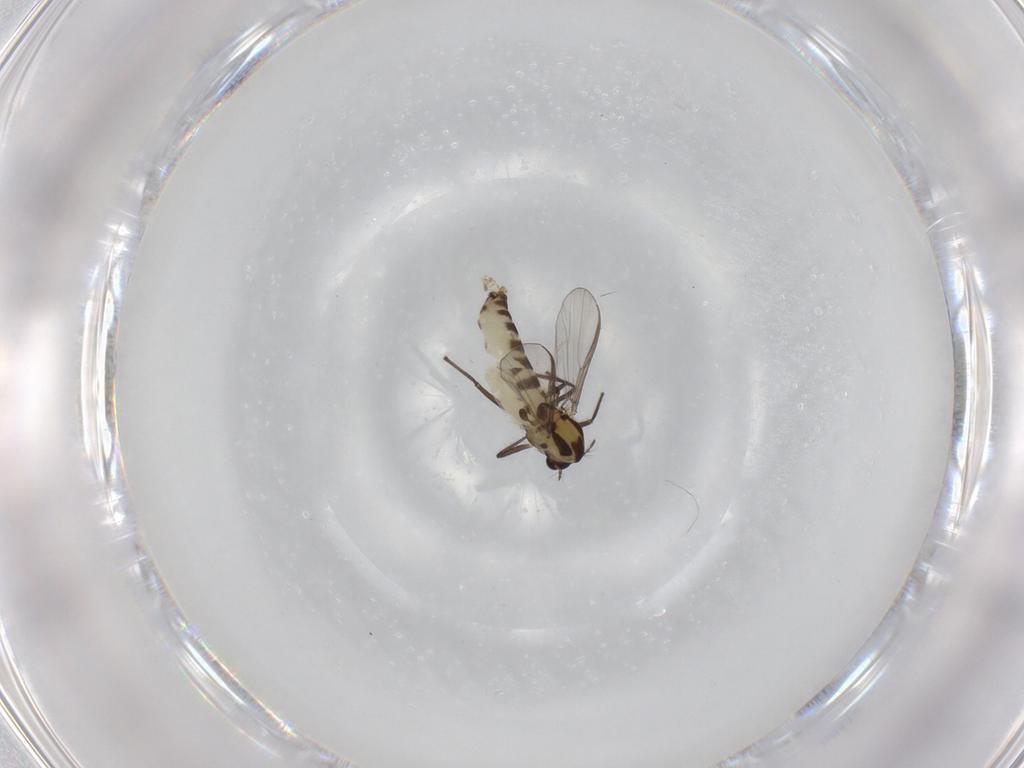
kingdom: Animalia
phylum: Arthropoda
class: Insecta
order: Diptera
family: Chironomidae
